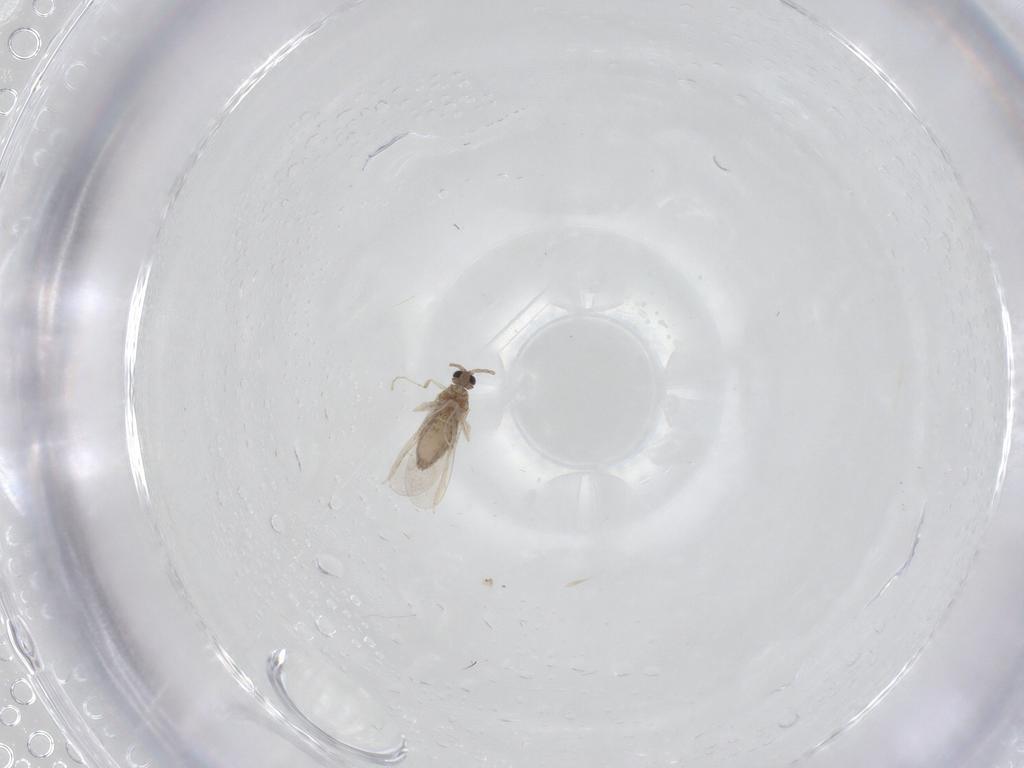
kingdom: Animalia
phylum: Arthropoda
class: Insecta
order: Diptera
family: Cecidomyiidae
